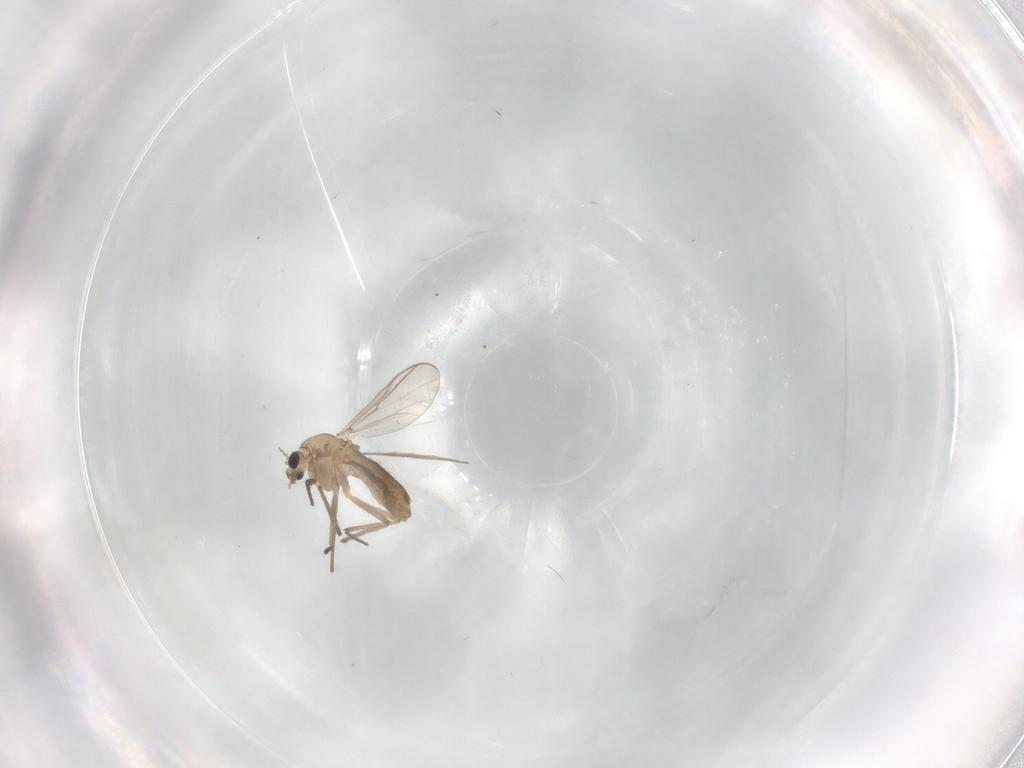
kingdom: Animalia
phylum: Arthropoda
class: Insecta
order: Diptera
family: Chironomidae
